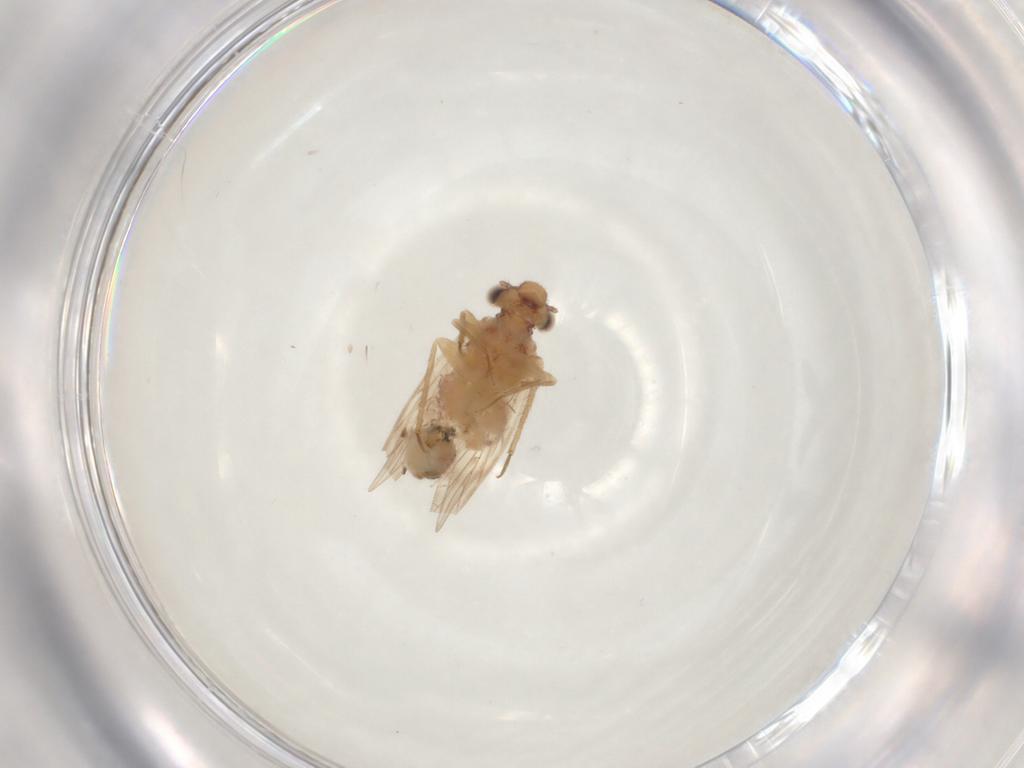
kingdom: Animalia
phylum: Arthropoda
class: Insecta
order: Psocodea
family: Lepidopsocidae
